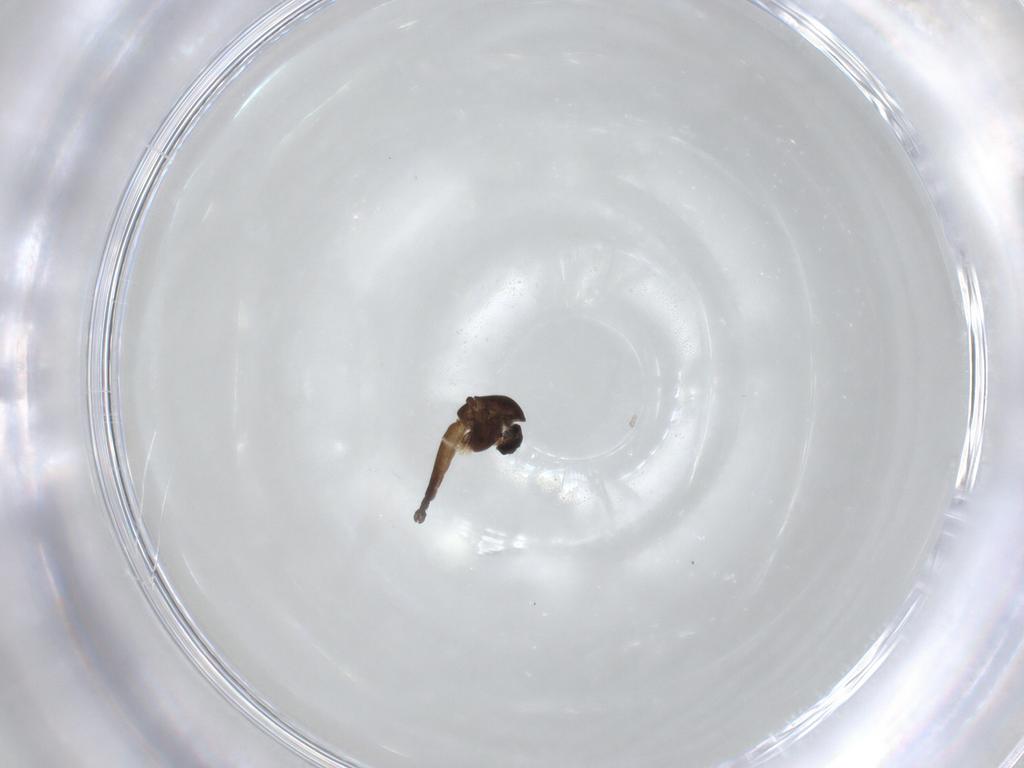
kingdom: Animalia
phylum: Arthropoda
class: Insecta
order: Diptera
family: Chironomidae
